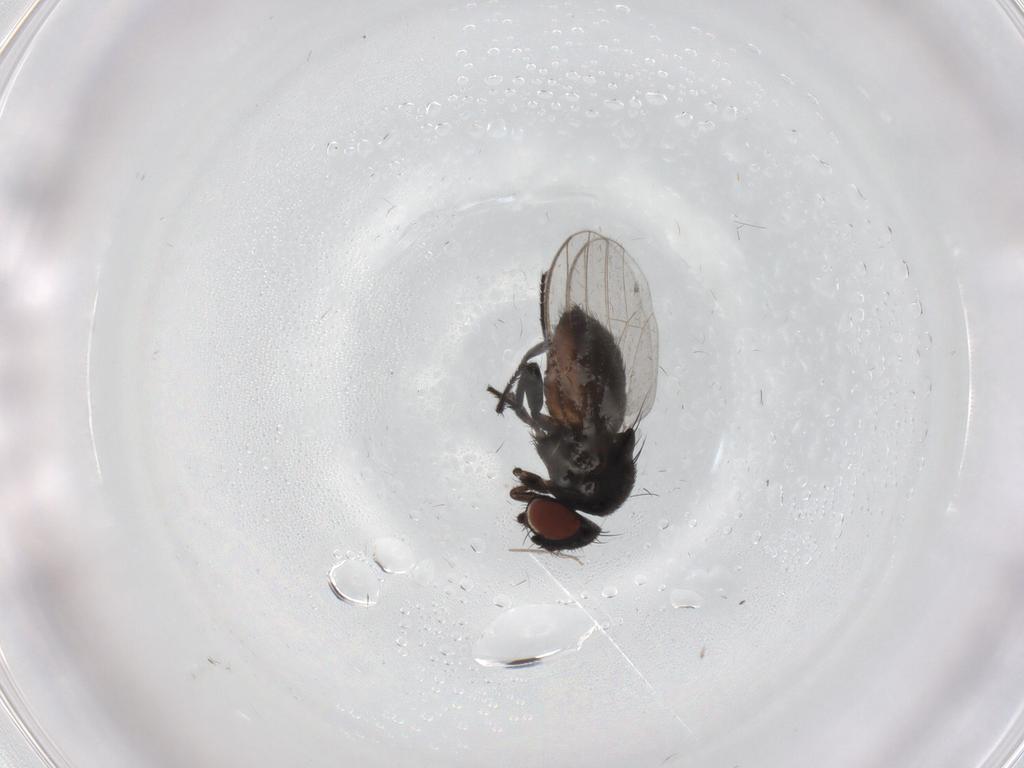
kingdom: Animalia
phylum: Arthropoda
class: Insecta
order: Diptera
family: Milichiidae
